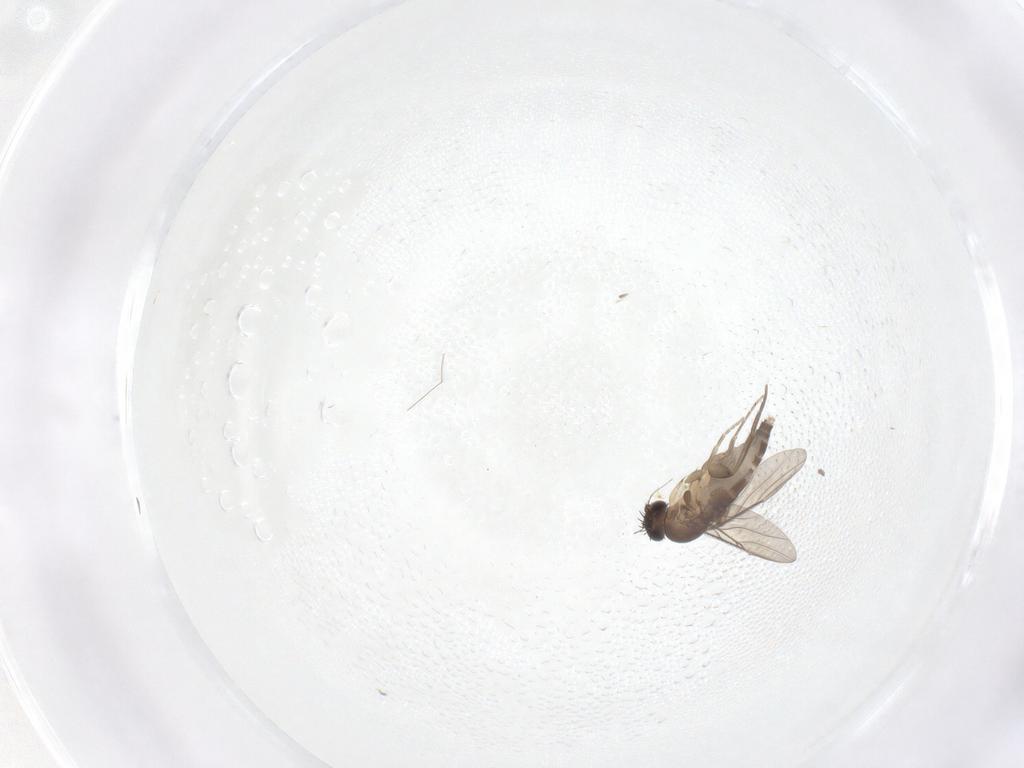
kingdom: Animalia
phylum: Arthropoda
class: Insecta
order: Diptera
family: Phoridae
